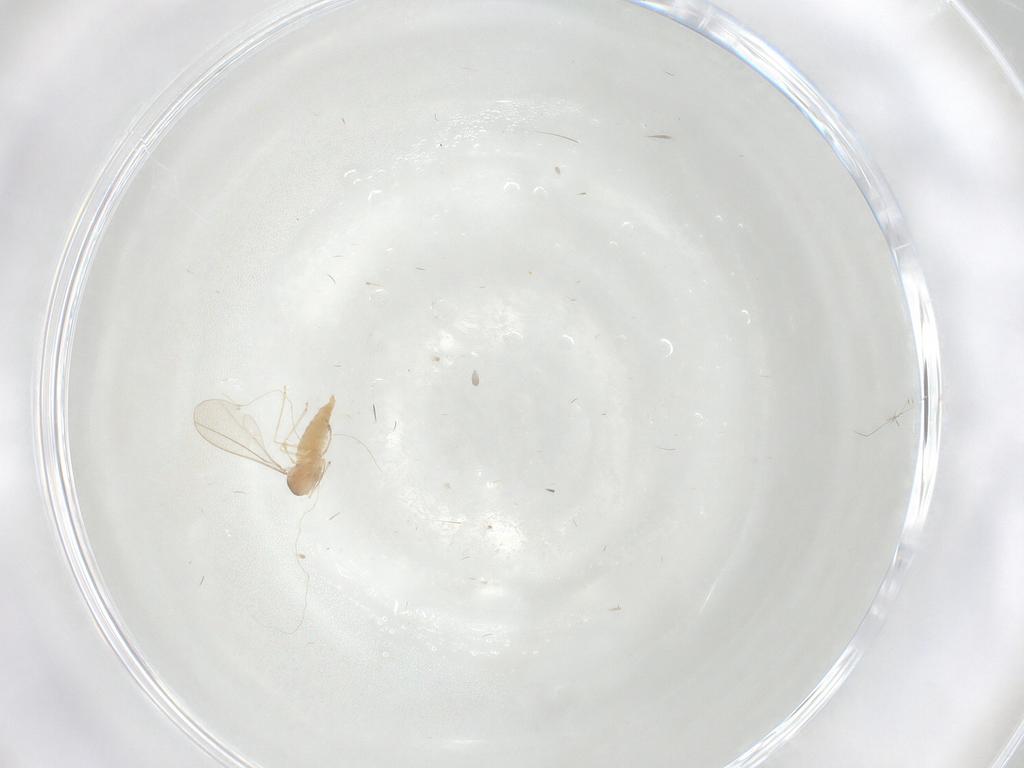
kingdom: Animalia
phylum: Arthropoda
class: Insecta
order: Diptera
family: Cecidomyiidae
